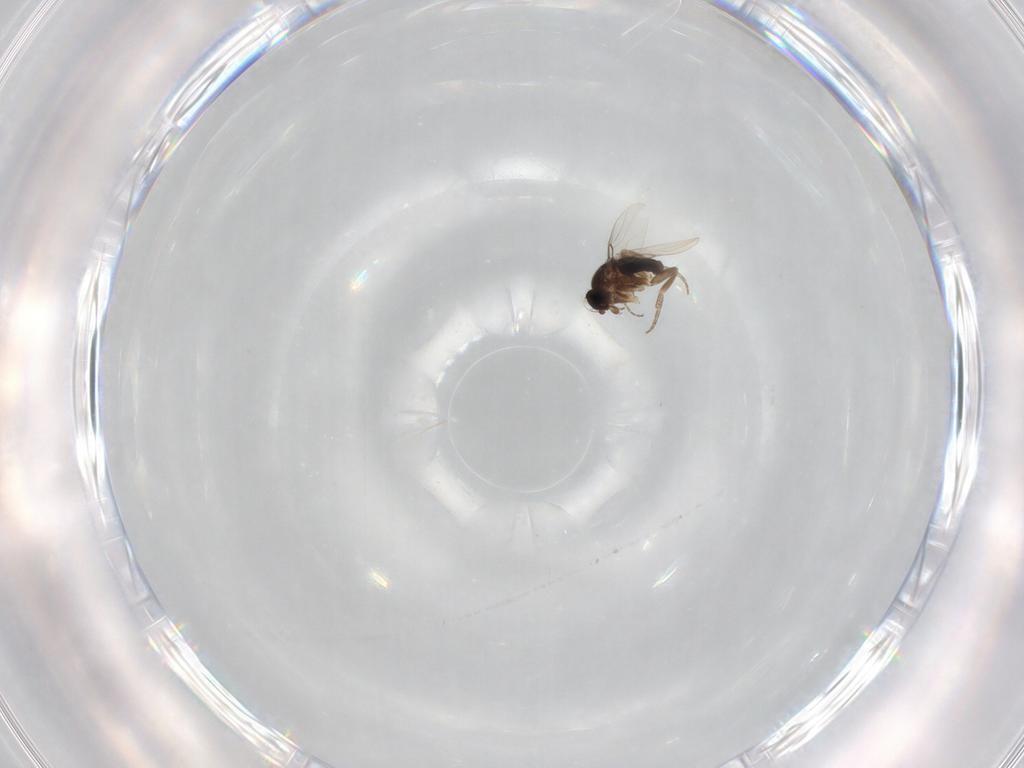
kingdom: Animalia
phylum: Arthropoda
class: Insecta
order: Diptera
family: Phoridae
